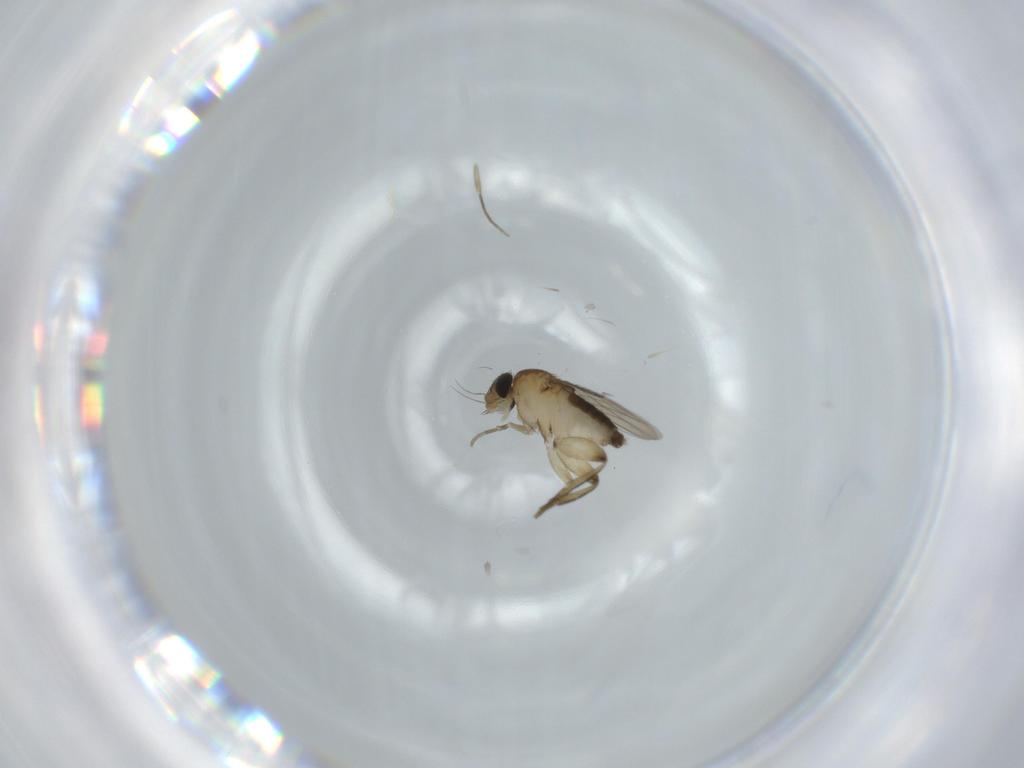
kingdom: Animalia
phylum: Arthropoda
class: Insecta
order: Diptera
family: Phoridae
